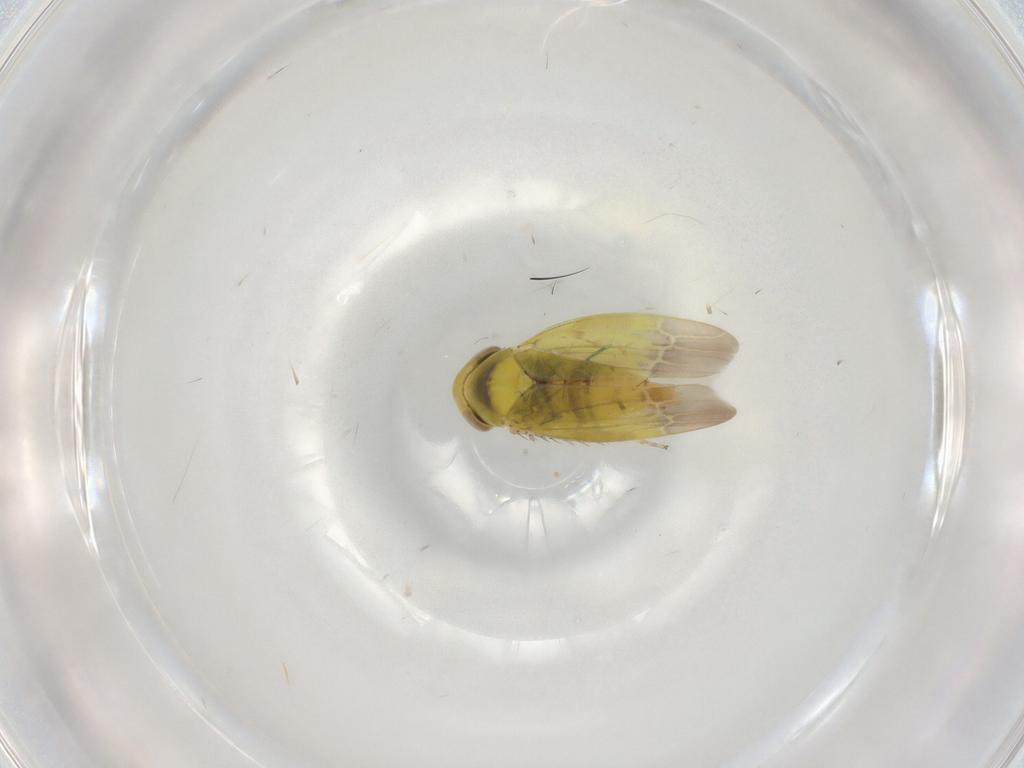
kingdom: Animalia
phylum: Arthropoda
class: Insecta
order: Hemiptera
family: Cicadellidae
